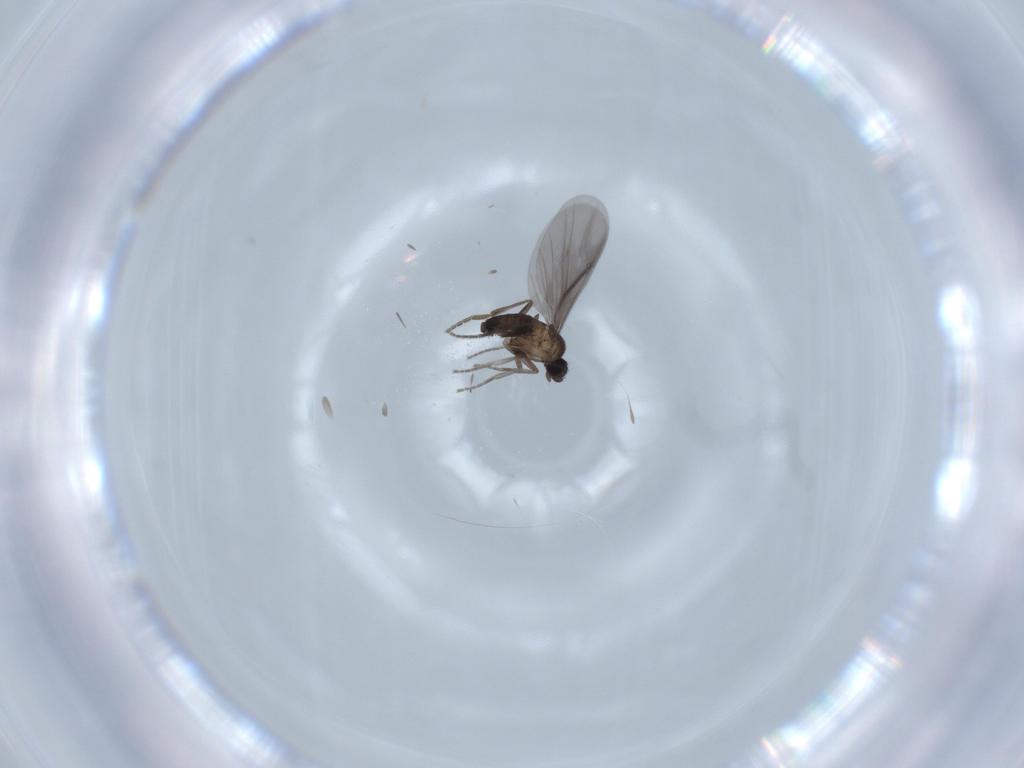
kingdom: Animalia
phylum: Arthropoda
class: Insecta
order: Diptera
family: Phoridae
